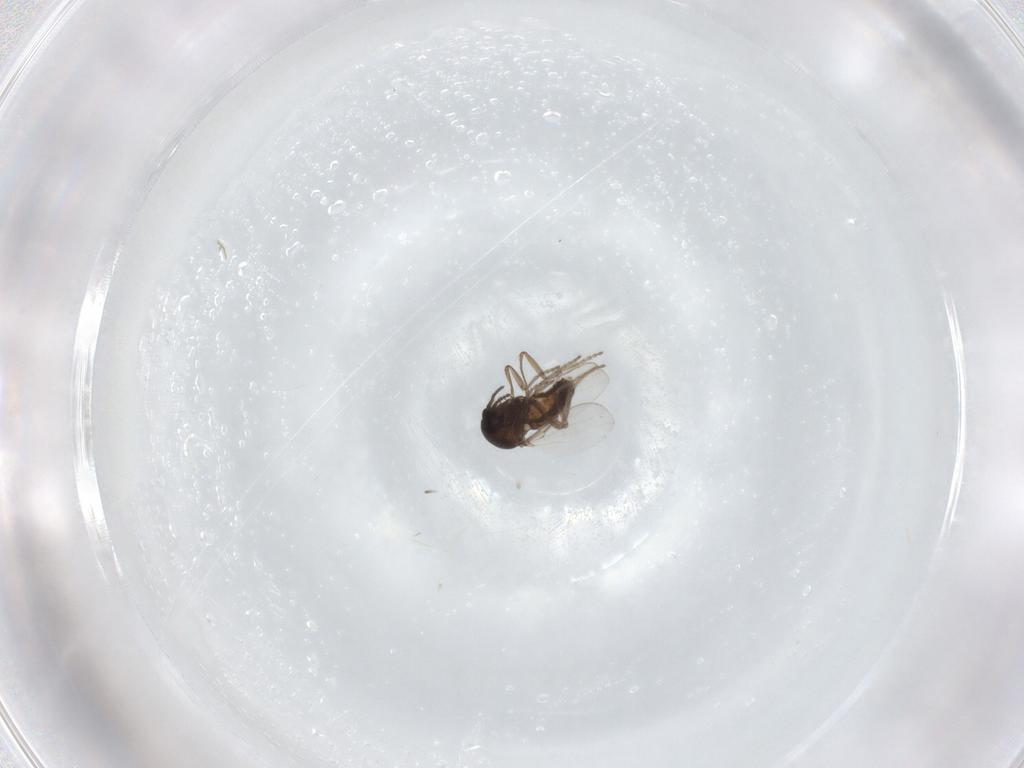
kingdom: Animalia
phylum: Arthropoda
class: Insecta
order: Diptera
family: Ceratopogonidae
